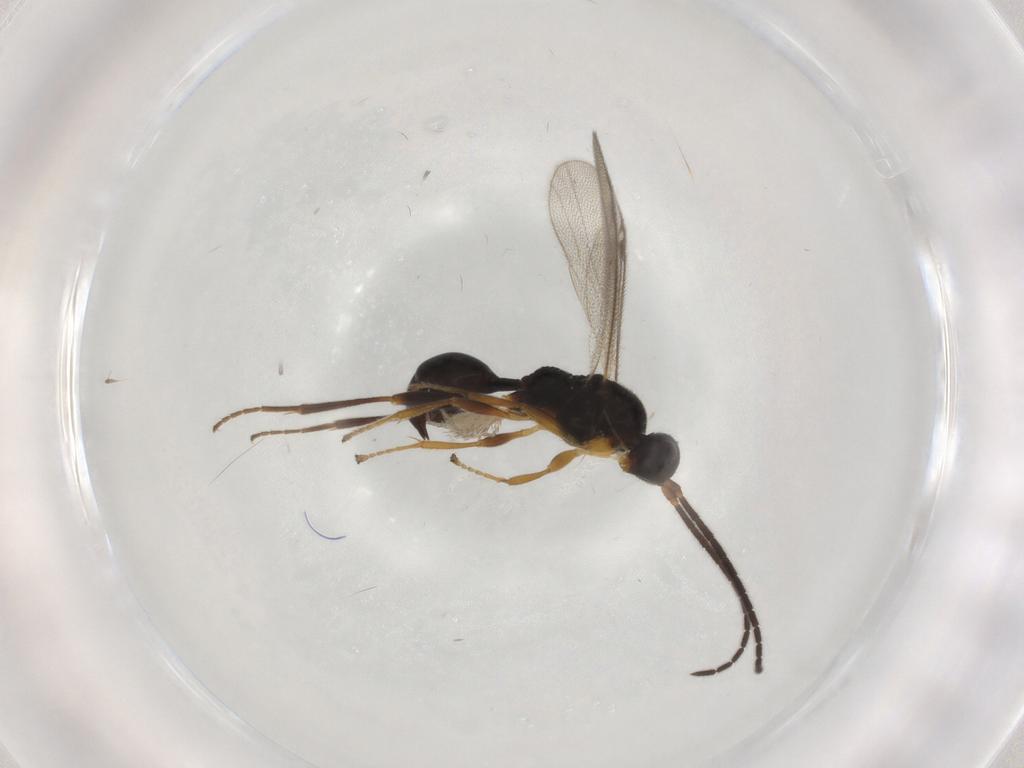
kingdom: Animalia
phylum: Arthropoda
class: Arachnida
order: Trombidiformes
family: Erythraeidae
